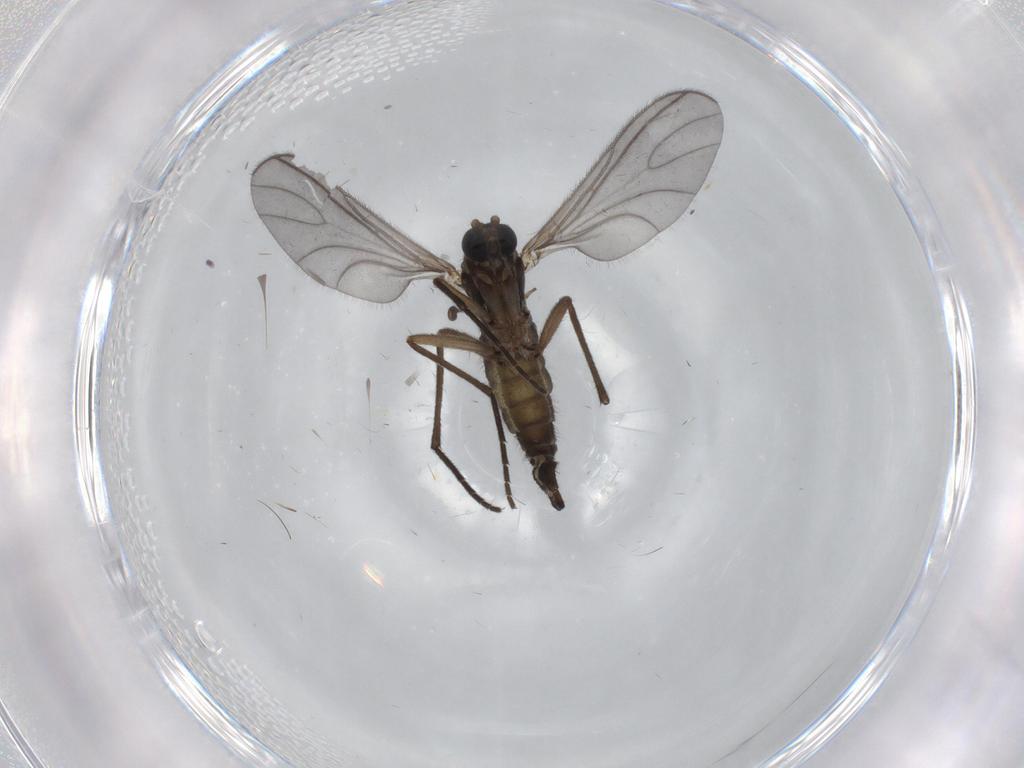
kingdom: Animalia
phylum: Arthropoda
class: Insecta
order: Diptera
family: Sciaridae
